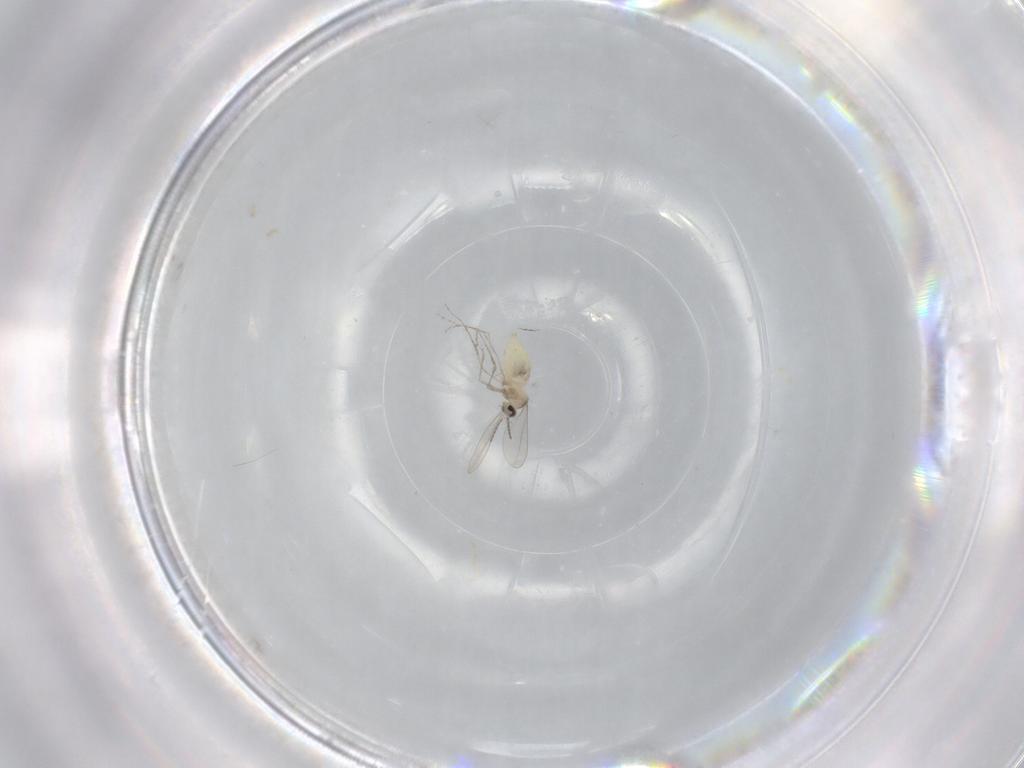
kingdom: Animalia
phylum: Arthropoda
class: Insecta
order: Diptera
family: Cecidomyiidae
